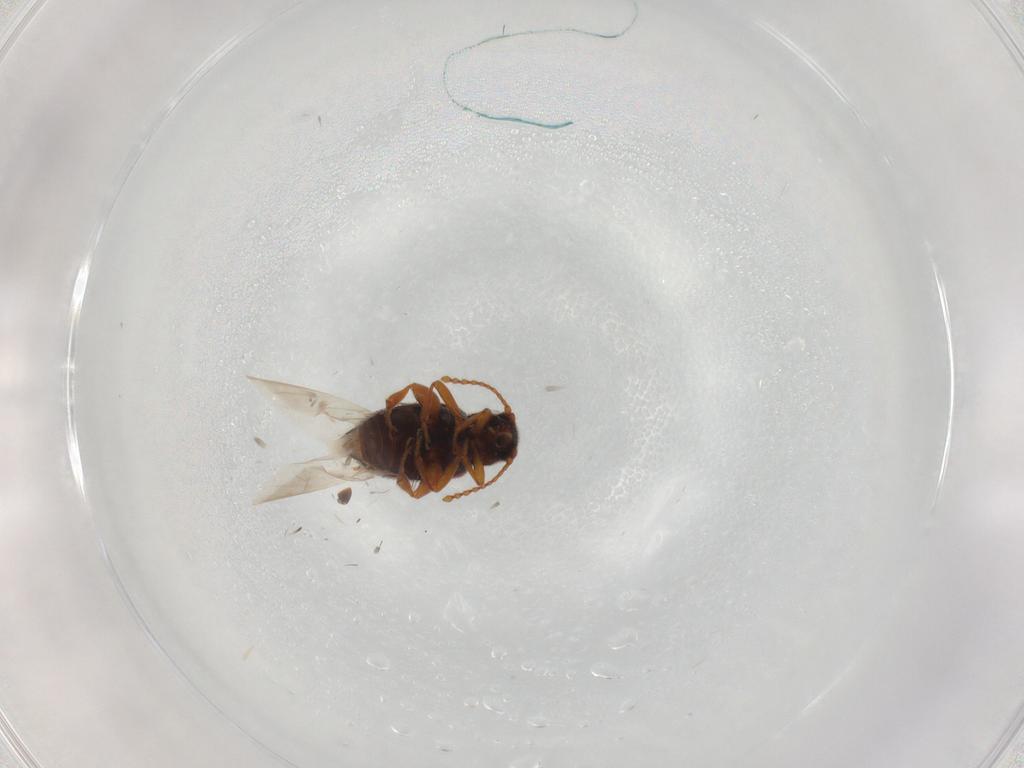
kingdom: Animalia
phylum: Arthropoda
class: Insecta
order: Coleoptera
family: Aderidae
